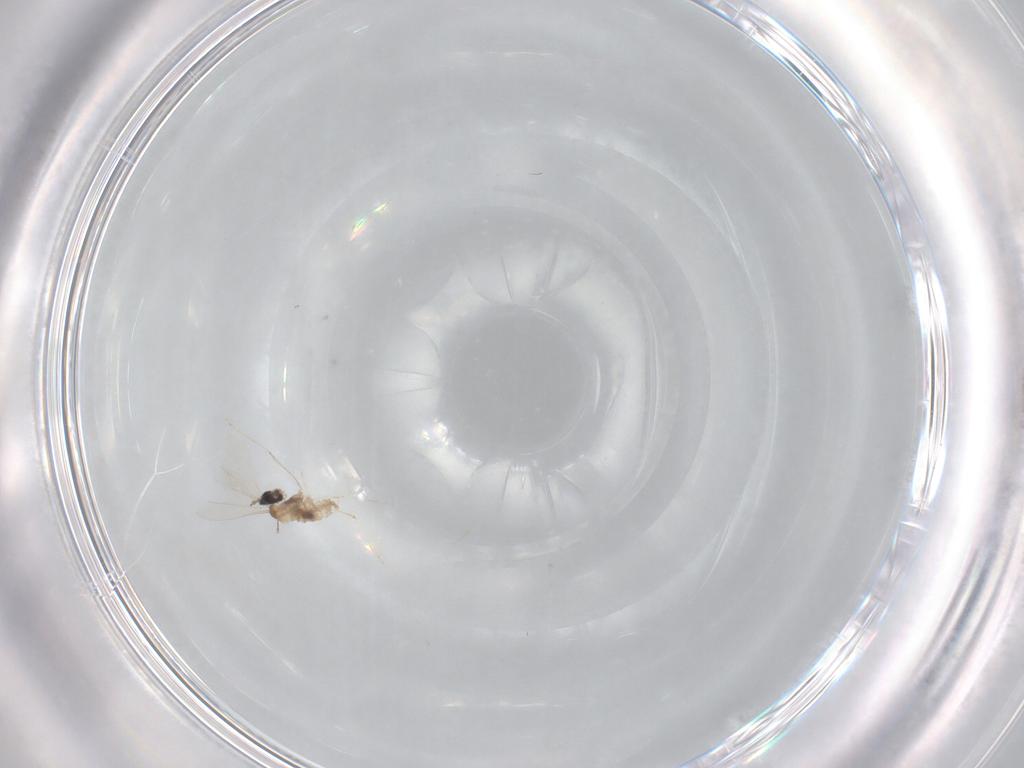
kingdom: Animalia
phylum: Arthropoda
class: Insecta
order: Diptera
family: Cecidomyiidae
